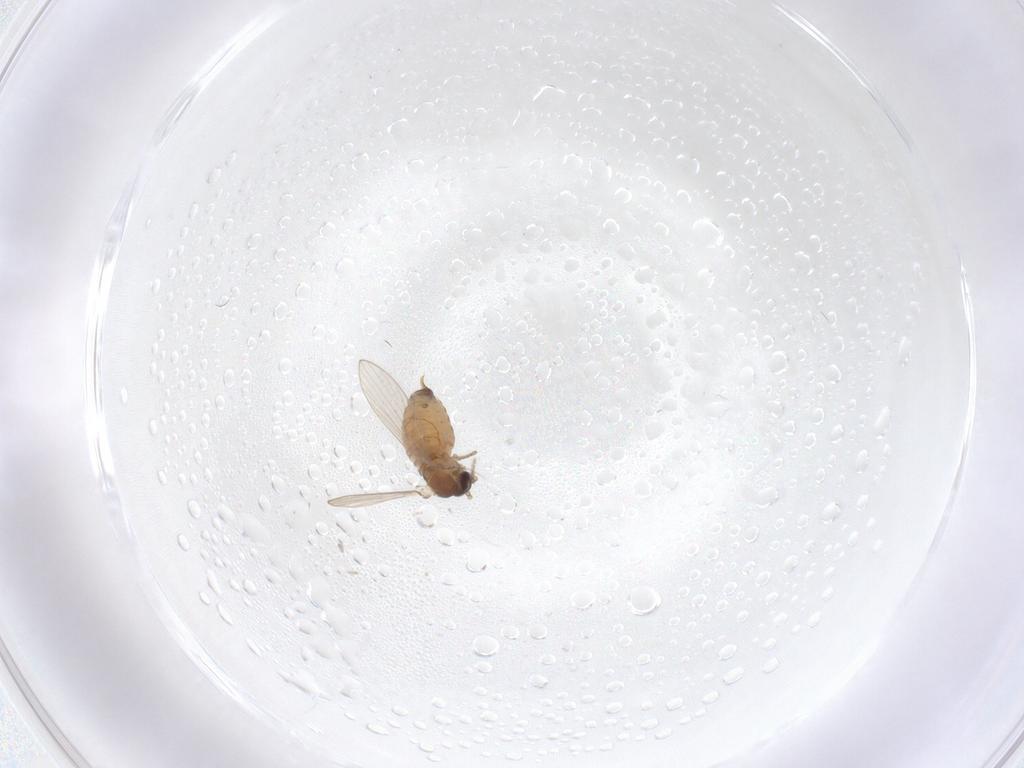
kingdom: Animalia
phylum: Arthropoda
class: Insecta
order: Diptera
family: Psychodidae
